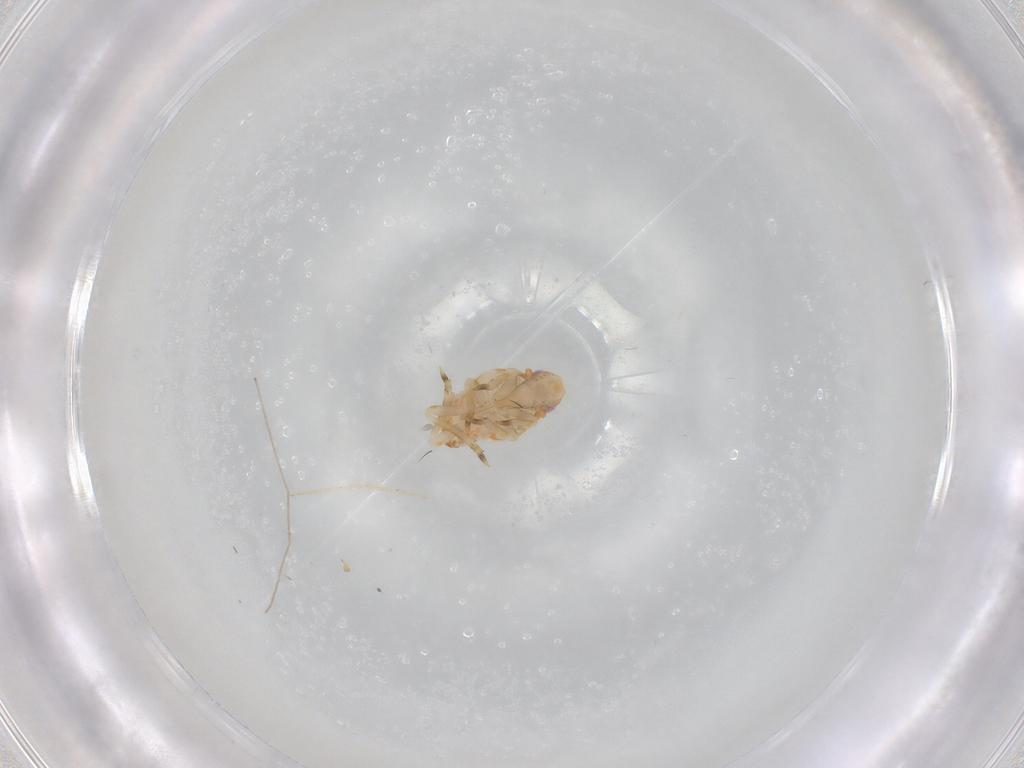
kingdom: Animalia
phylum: Arthropoda
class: Insecta
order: Hemiptera
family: Flatidae
